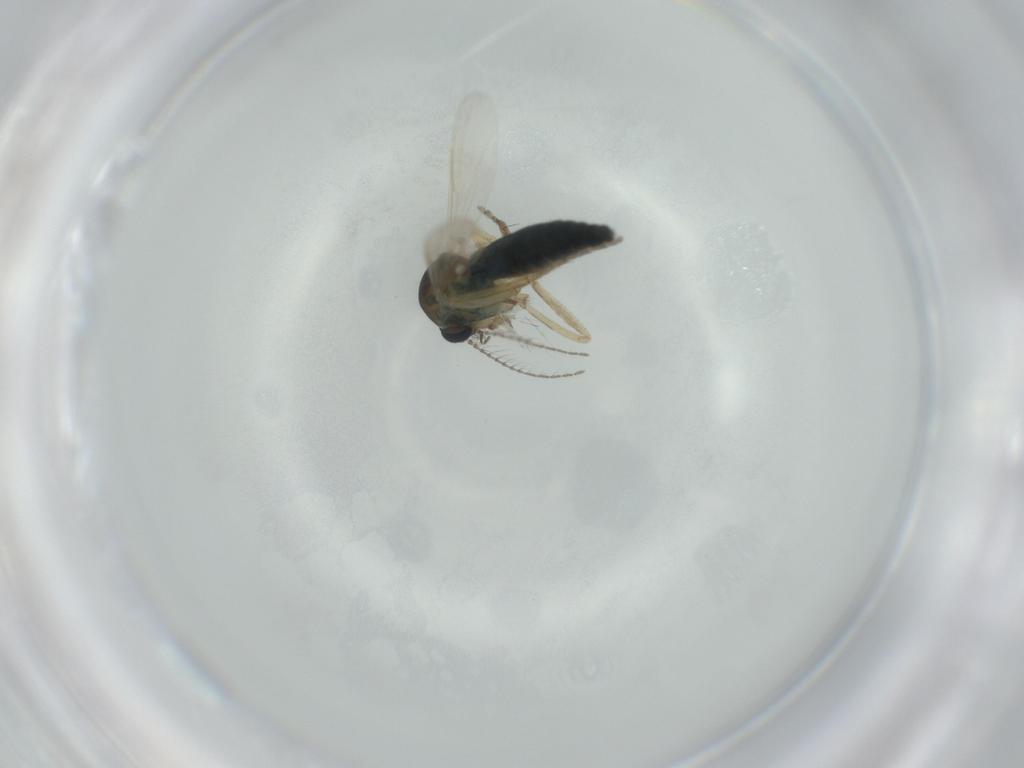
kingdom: Animalia
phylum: Arthropoda
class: Insecta
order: Diptera
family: Ceratopogonidae
